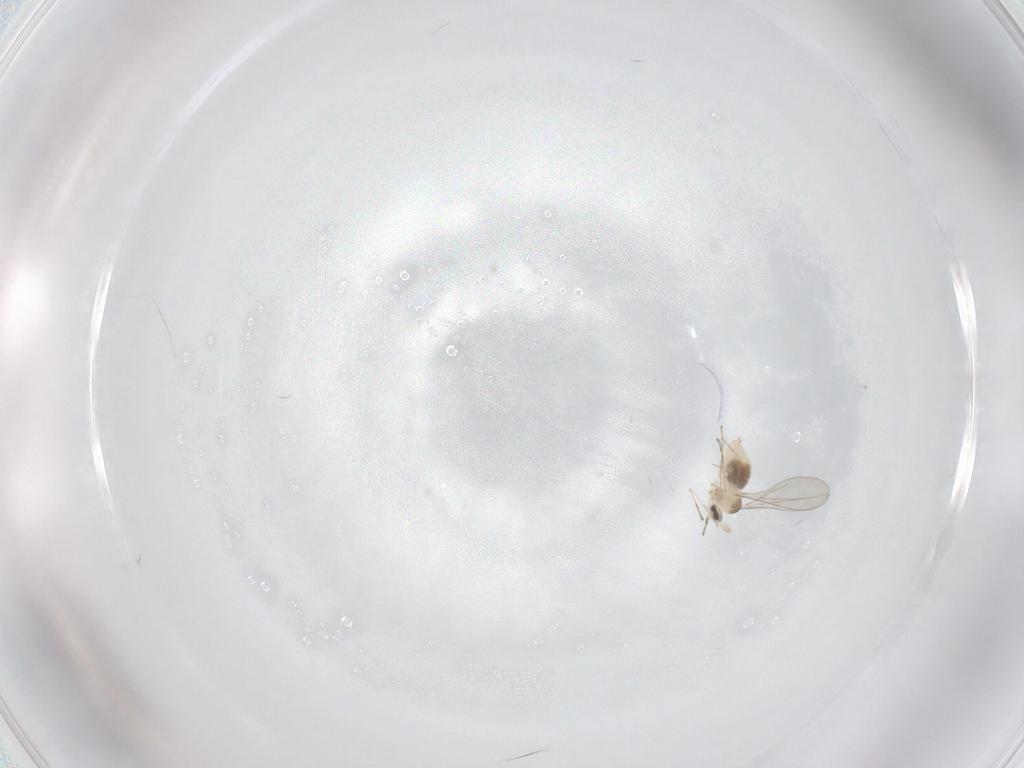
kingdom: Animalia
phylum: Arthropoda
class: Insecta
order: Diptera
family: Cecidomyiidae
